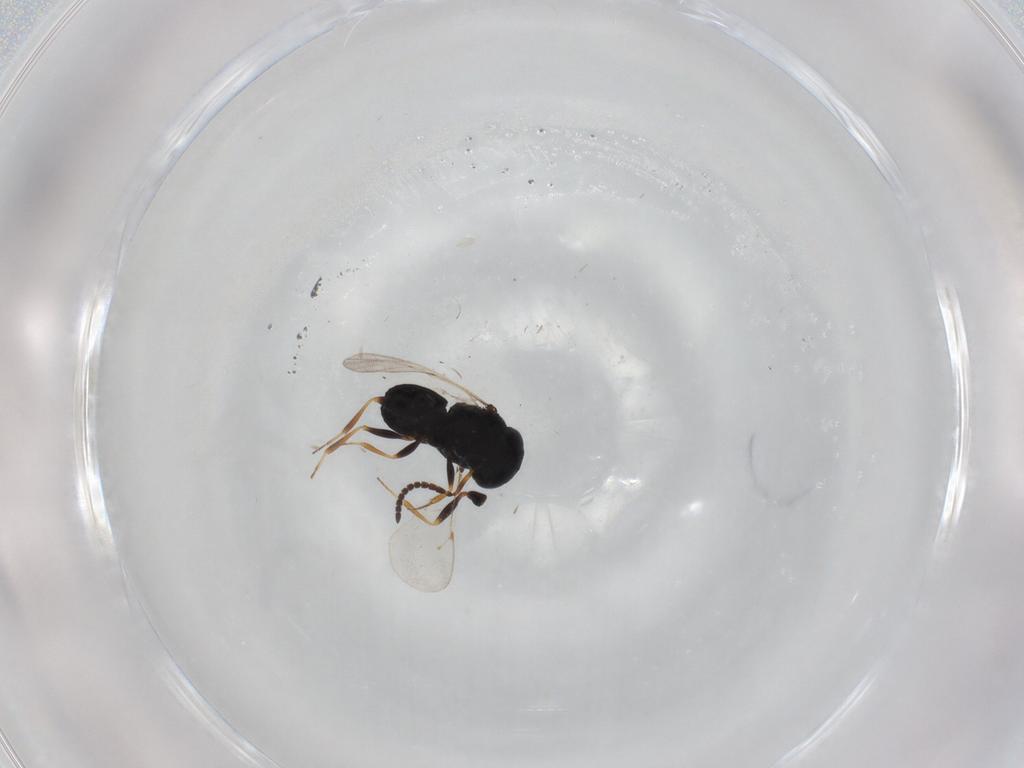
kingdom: Animalia
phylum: Arthropoda
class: Insecta
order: Coleoptera
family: Curculionidae
